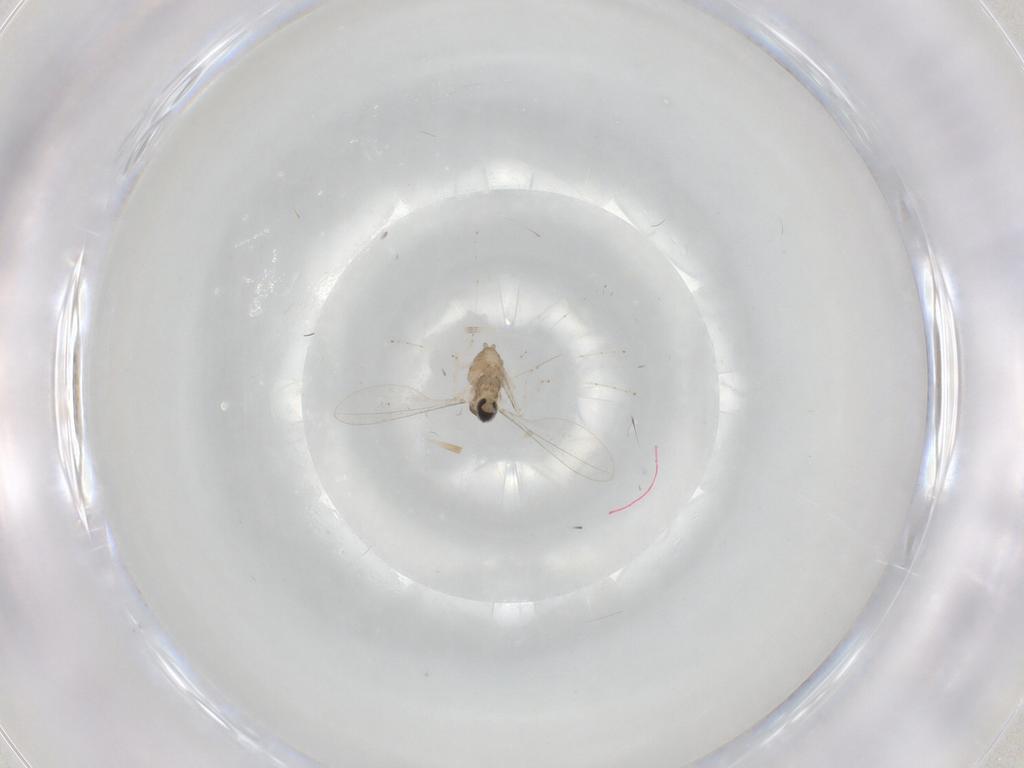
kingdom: Animalia
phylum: Arthropoda
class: Insecta
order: Diptera
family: Cecidomyiidae
